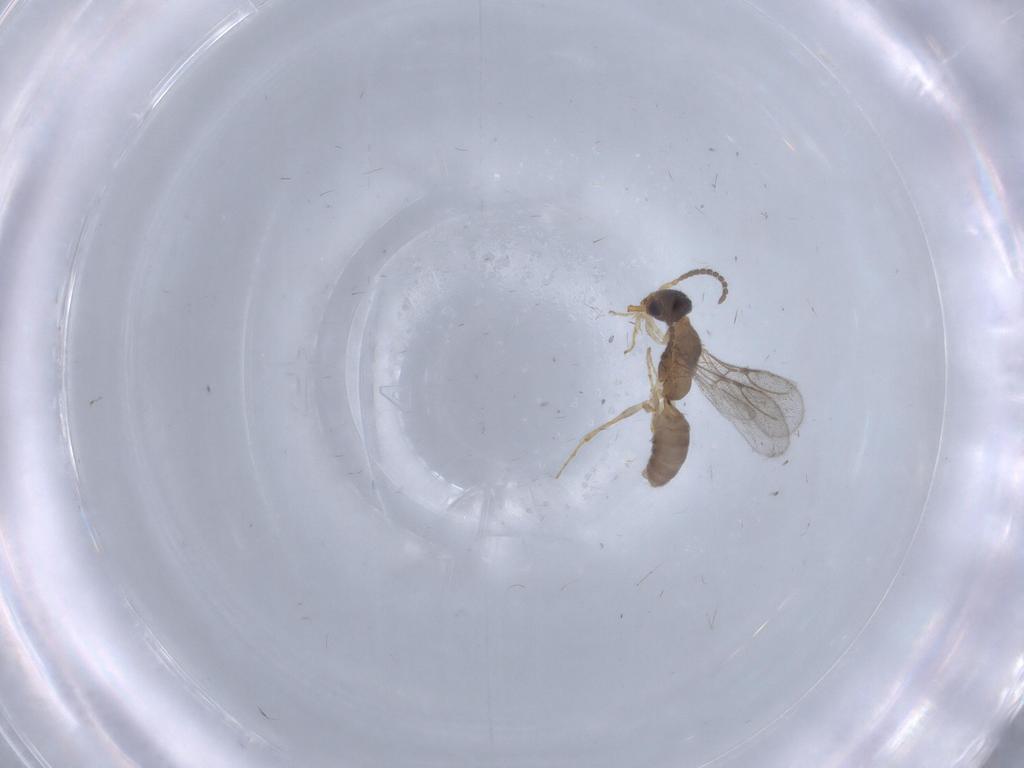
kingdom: Animalia
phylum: Arthropoda
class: Insecta
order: Hymenoptera
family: Bethylidae
